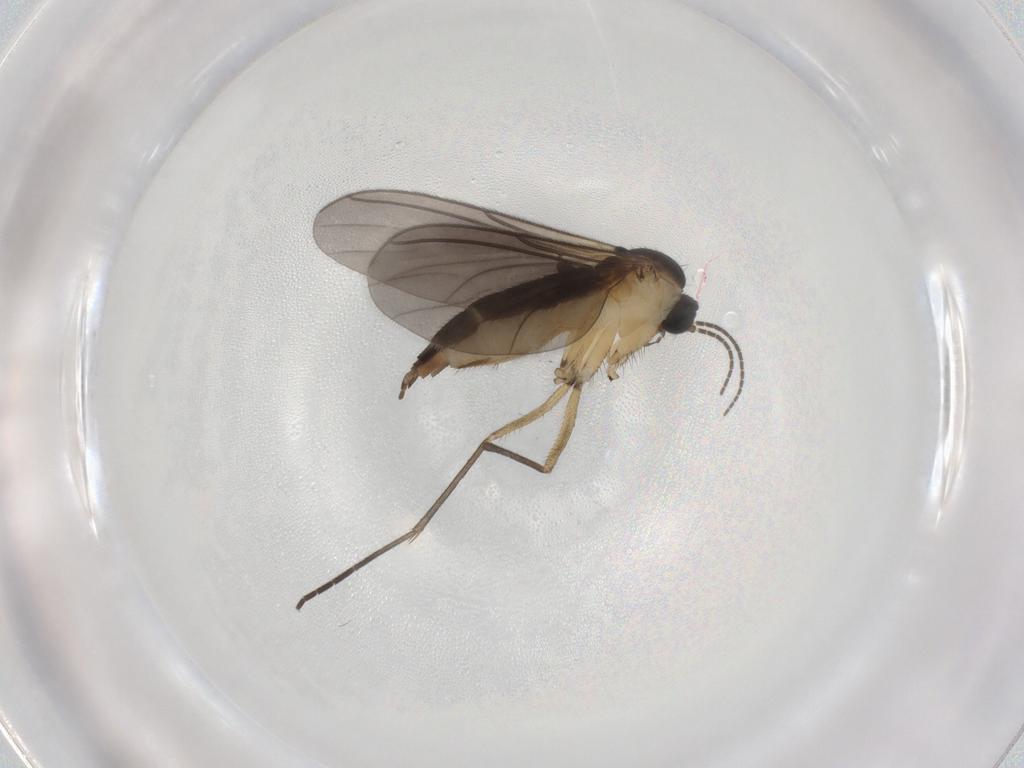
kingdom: Animalia
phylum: Arthropoda
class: Insecta
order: Diptera
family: Sciaridae
